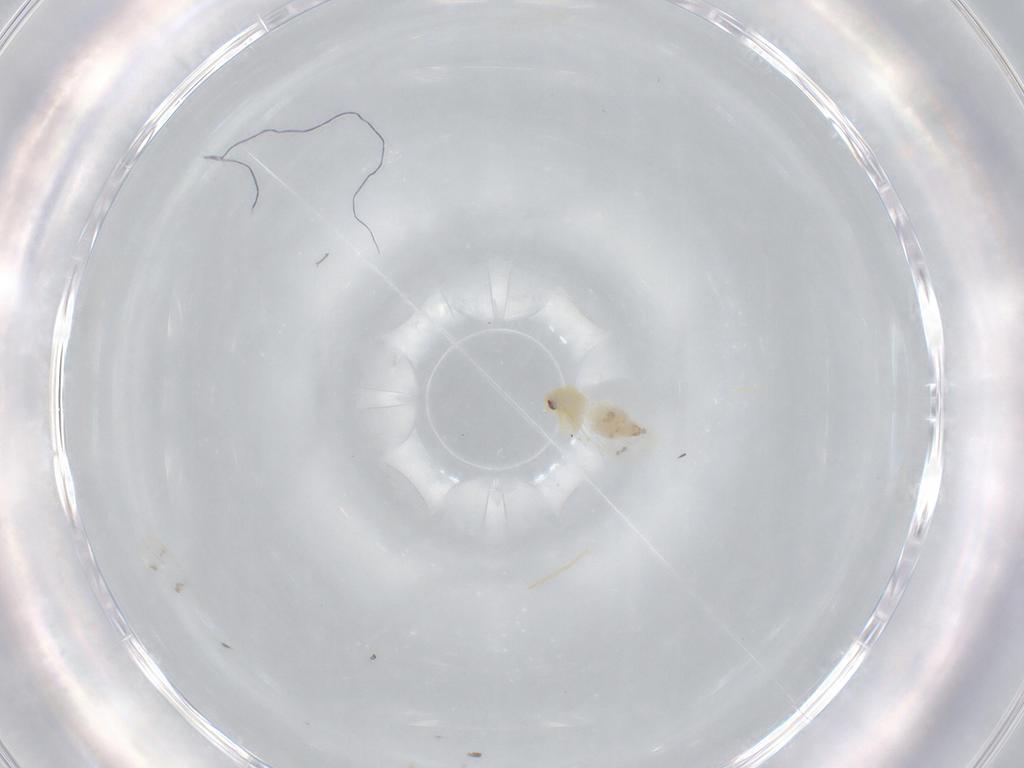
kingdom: Animalia
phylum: Arthropoda
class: Insecta
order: Hemiptera
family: Aleyrodidae
